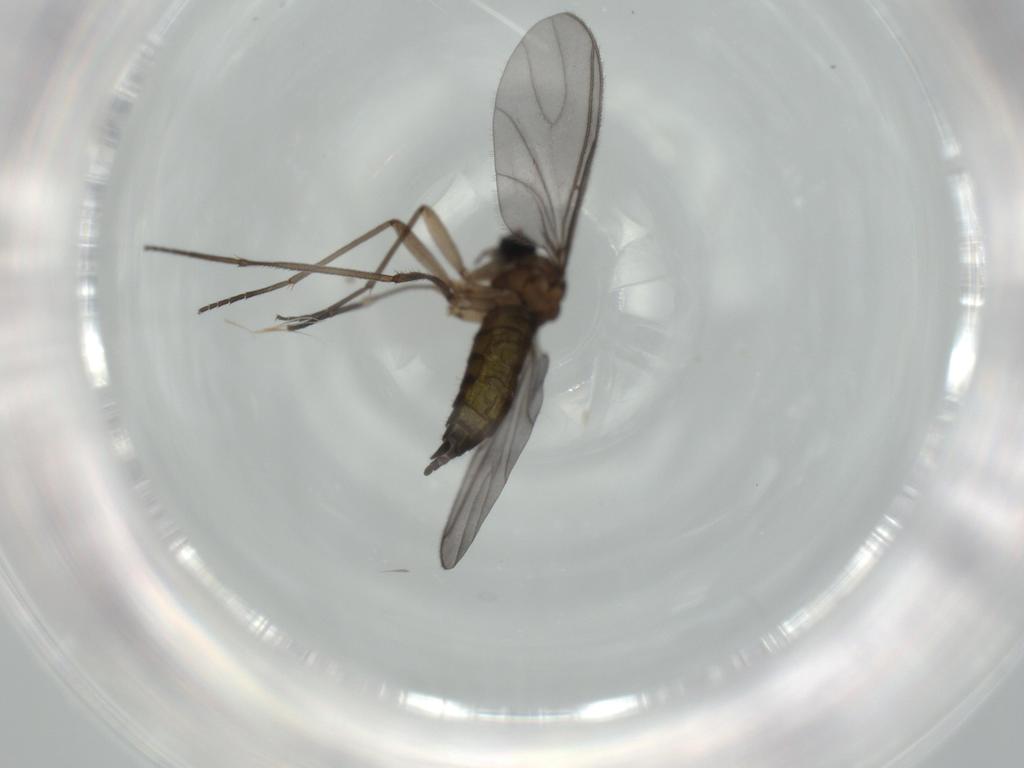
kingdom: Animalia
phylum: Arthropoda
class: Insecta
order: Diptera
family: Sciaridae
